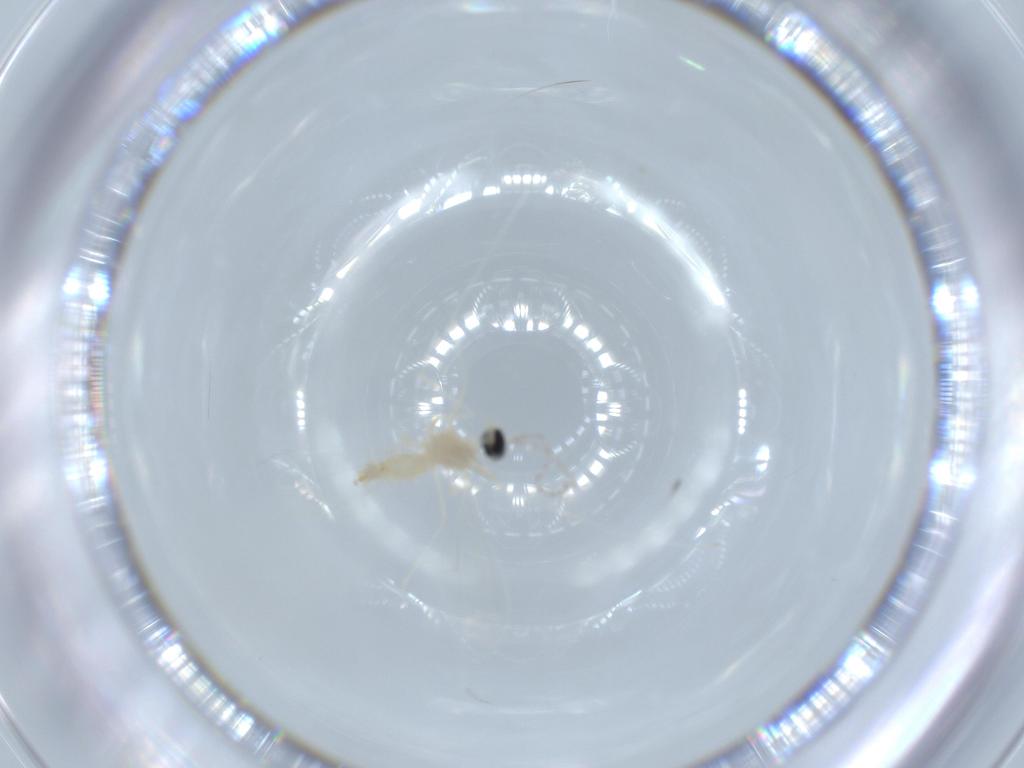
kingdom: Animalia
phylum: Arthropoda
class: Insecta
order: Diptera
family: Cecidomyiidae
